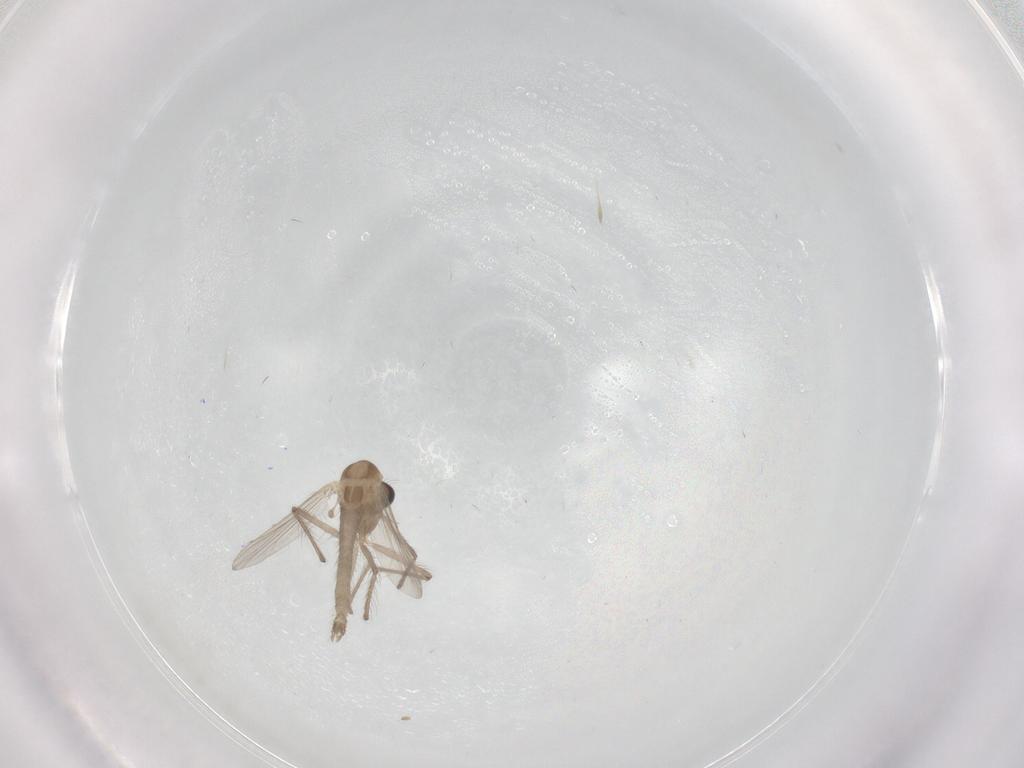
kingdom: Animalia
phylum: Arthropoda
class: Insecta
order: Diptera
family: Chironomidae
